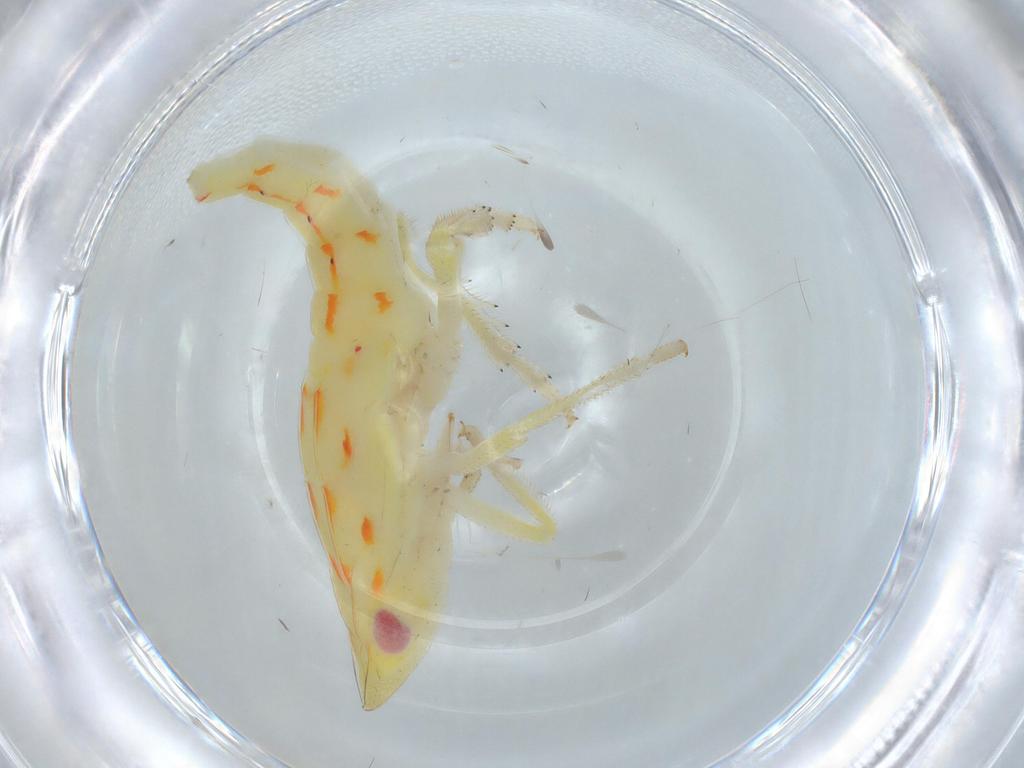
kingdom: Animalia
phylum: Arthropoda
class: Insecta
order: Hemiptera
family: Tropiduchidae
